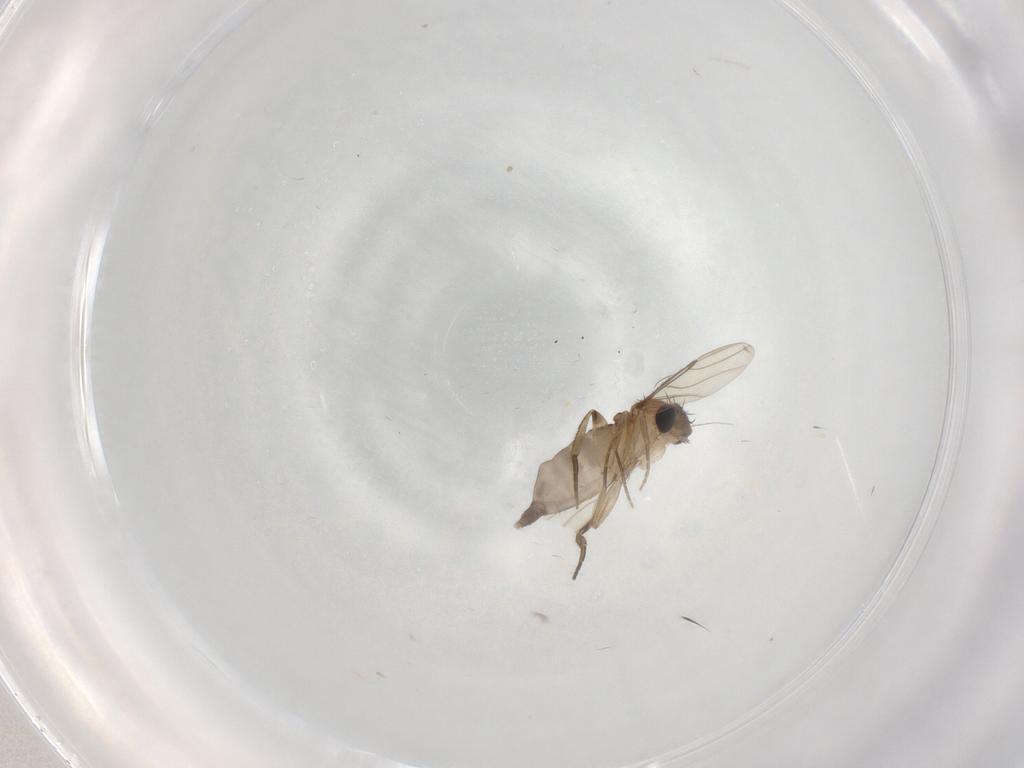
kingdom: Animalia
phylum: Arthropoda
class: Insecta
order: Diptera
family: Phoridae
